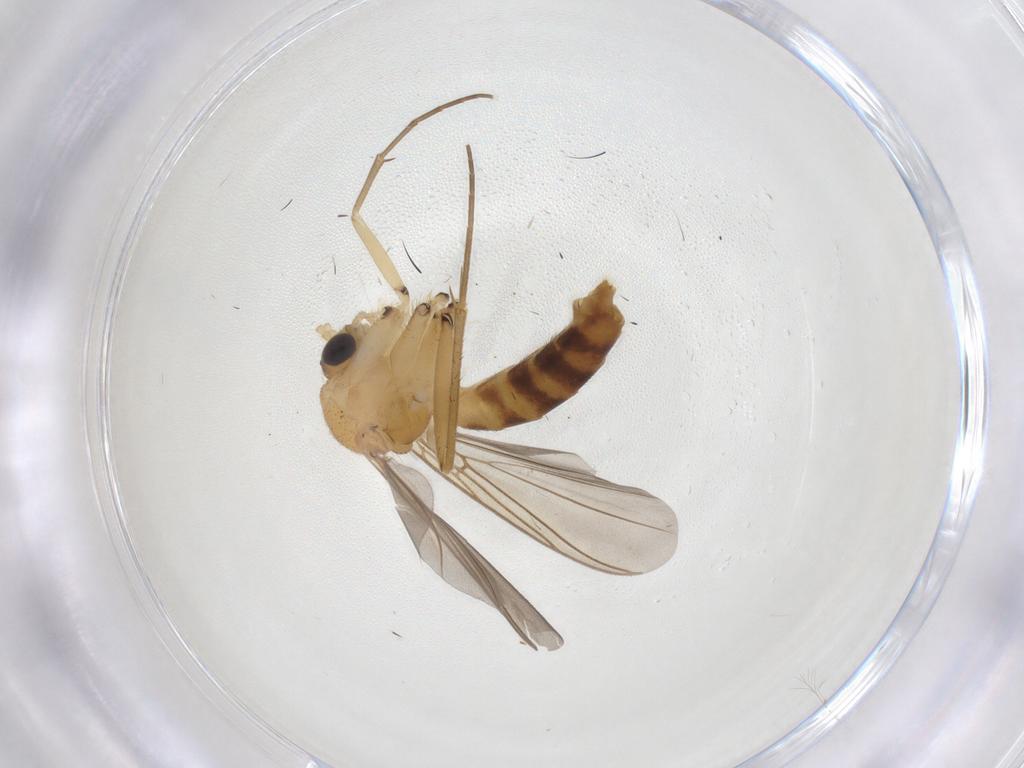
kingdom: Animalia
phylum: Arthropoda
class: Insecta
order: Diptera
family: Mycetophilidae
